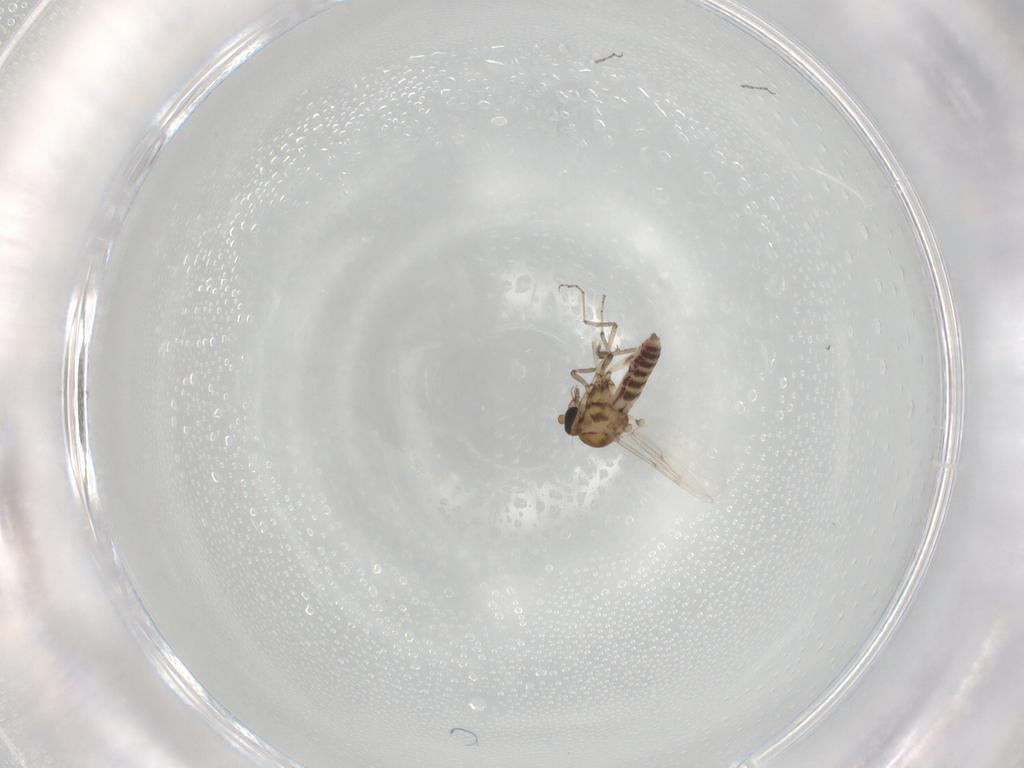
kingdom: Animalia
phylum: Arthropoda
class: Insecta
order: Diptera
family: Ceratopogonidae
